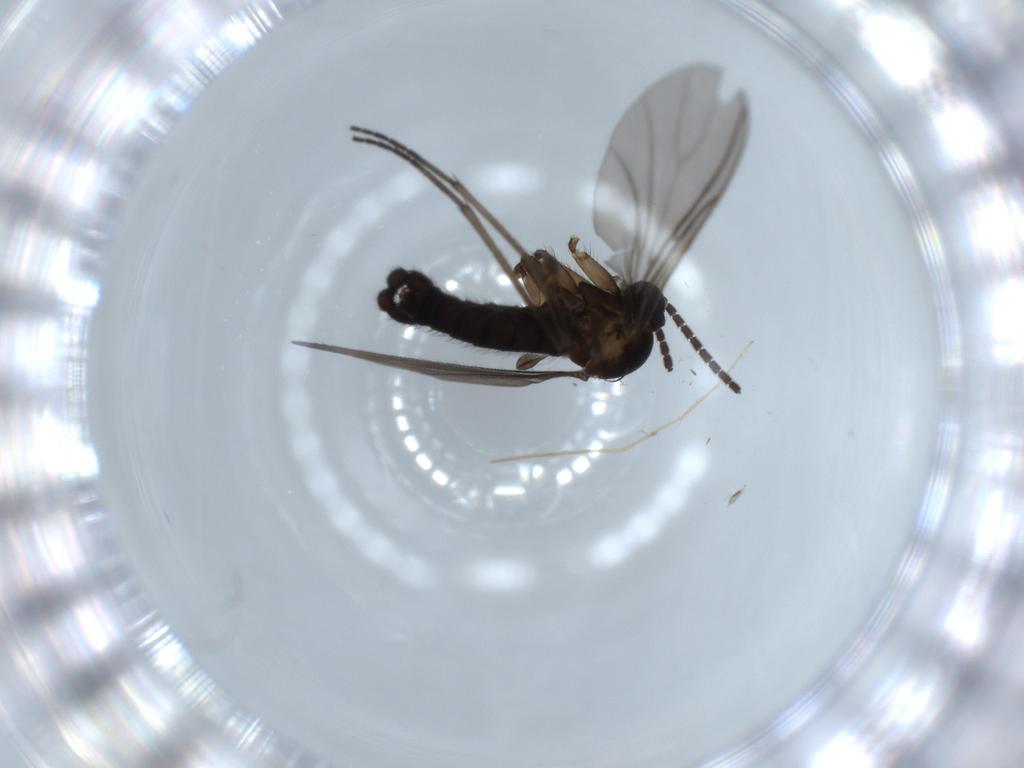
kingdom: Animalia
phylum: Arthropoda
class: Insecta
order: Diptera
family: Sciaridae
